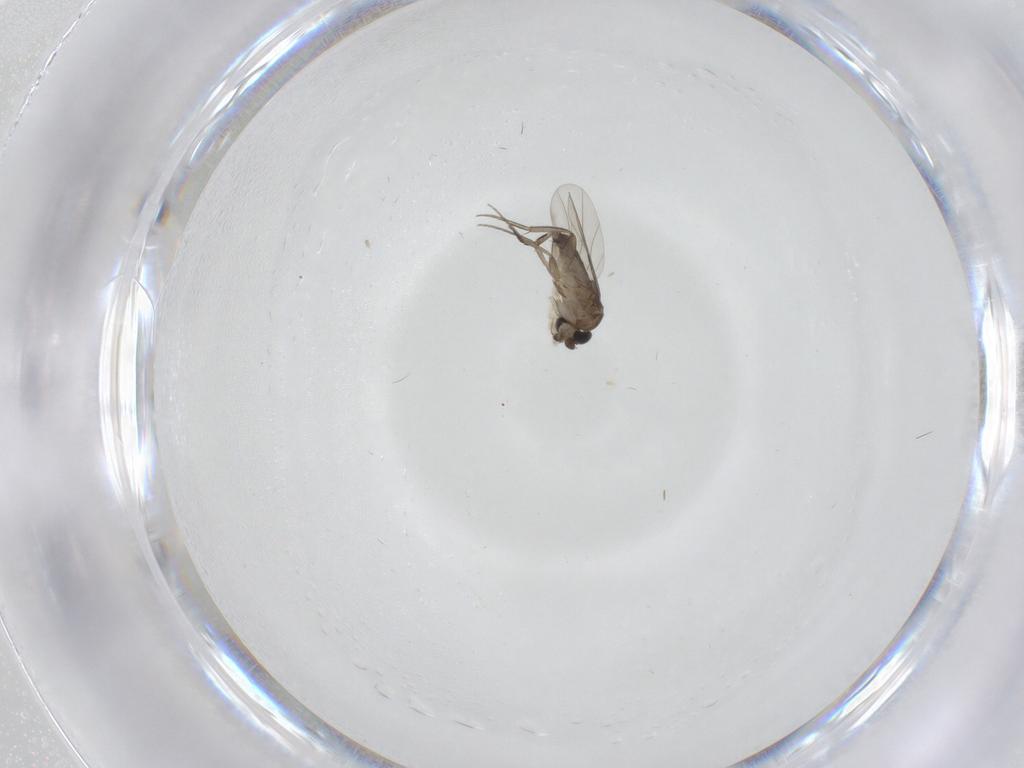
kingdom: Animalia
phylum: Arthropoda
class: Insecta
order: Diptera
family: Phoridae
